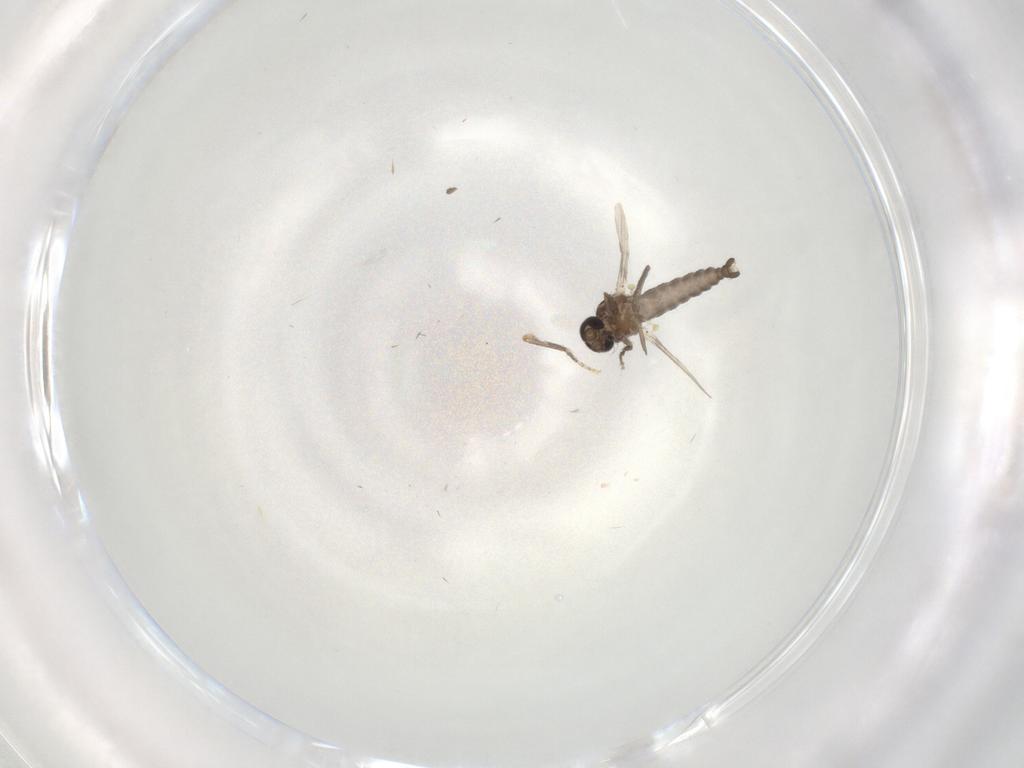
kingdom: Animalia
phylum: Arthropoda
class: Insecta
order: Diptera
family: Ceratopogonidae
